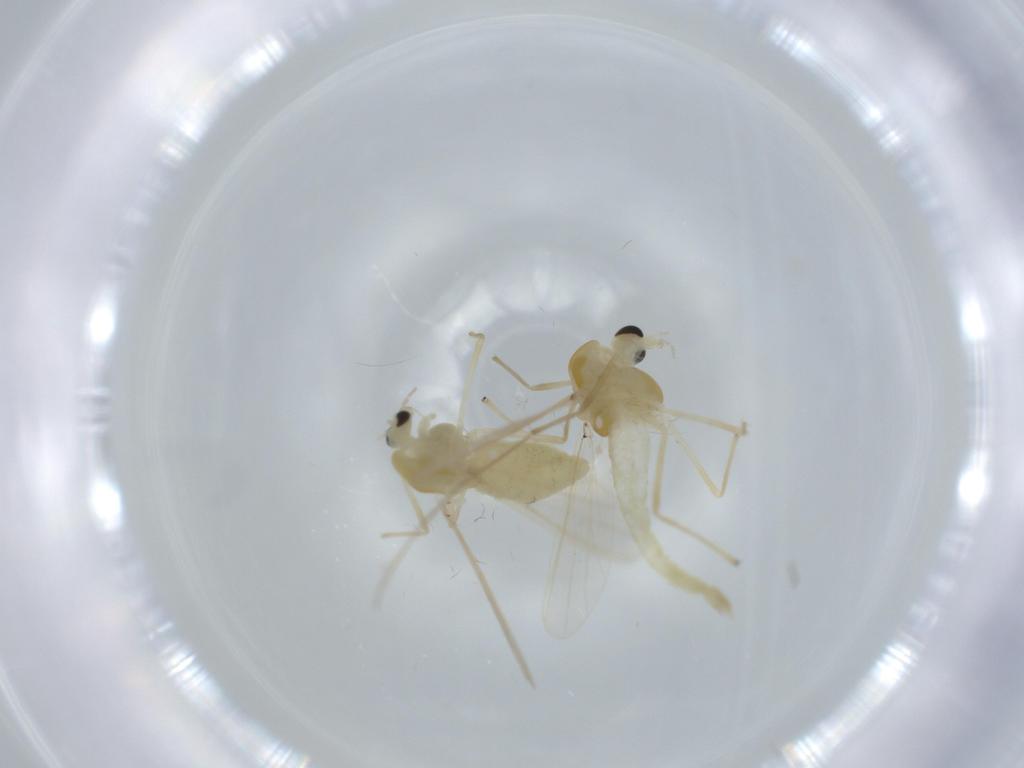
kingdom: Animalia
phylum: Arthropoda
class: Insecta
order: Diptera
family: Chironomidae
